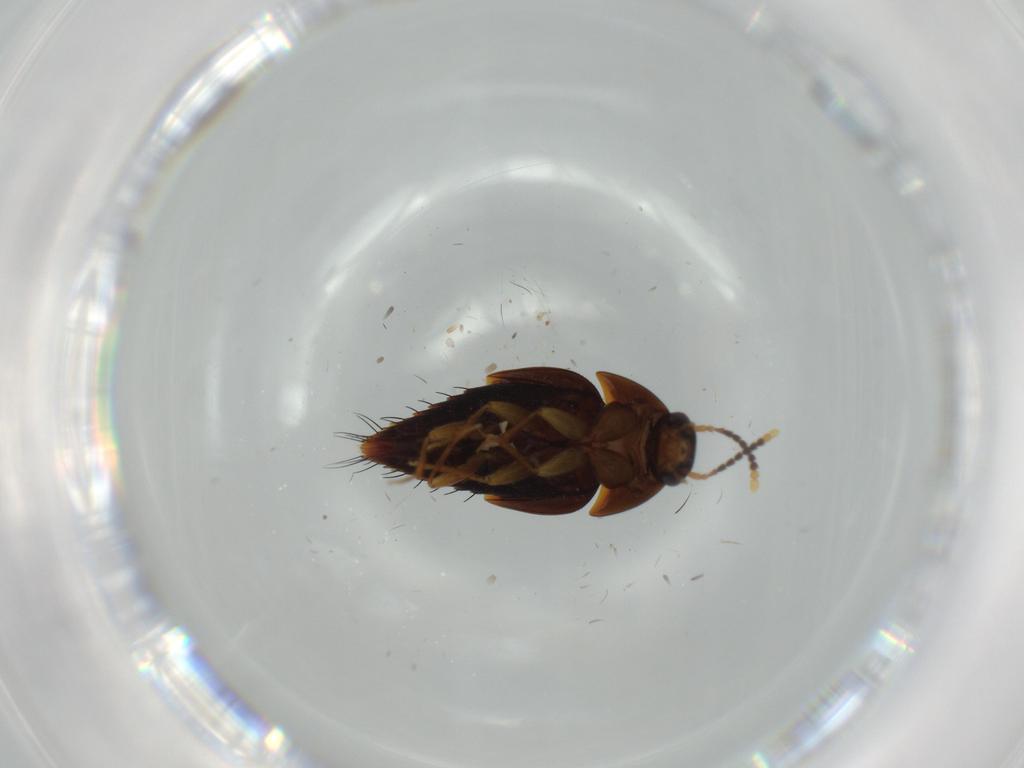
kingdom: Animalia
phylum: Arthropoda
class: Insecta
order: Coleoptera
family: Staphylinidae
